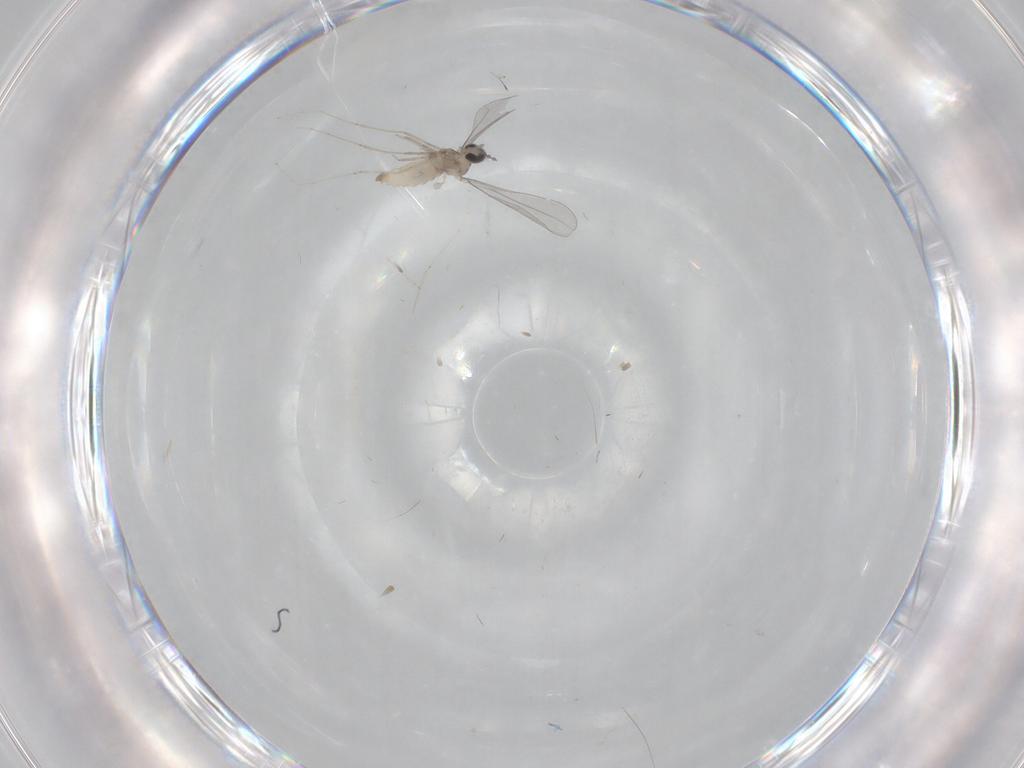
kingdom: Animalia
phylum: Arthropoda
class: Insecta
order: Diptera
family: Cecidomyiidae
